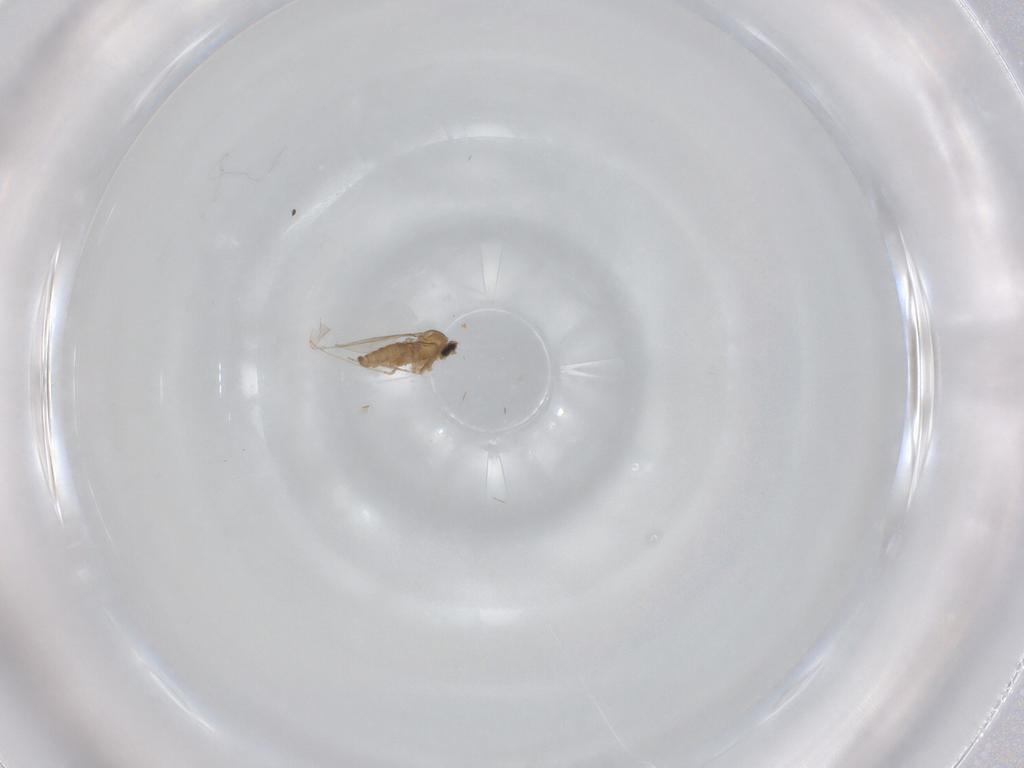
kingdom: Animalia
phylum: Arthropoda
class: Insecta
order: Diptera
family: Cecidomyiidae
